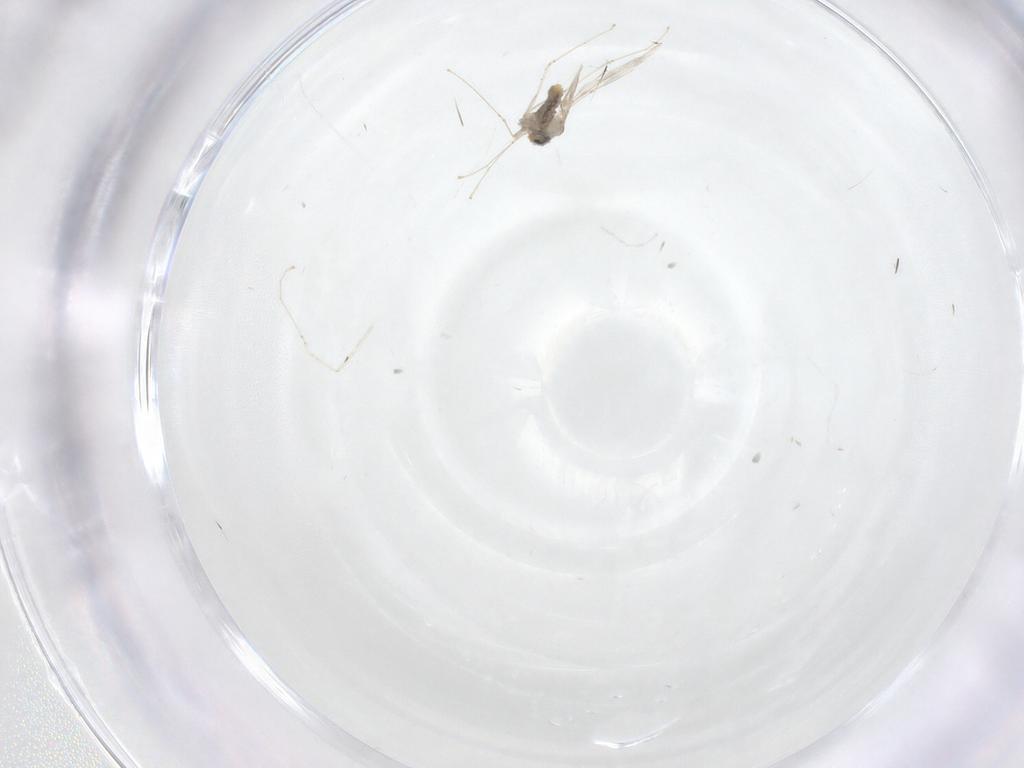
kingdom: Animalia
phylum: Arthropoda
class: Insecta
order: Diptera
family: Cecidomyiidae
